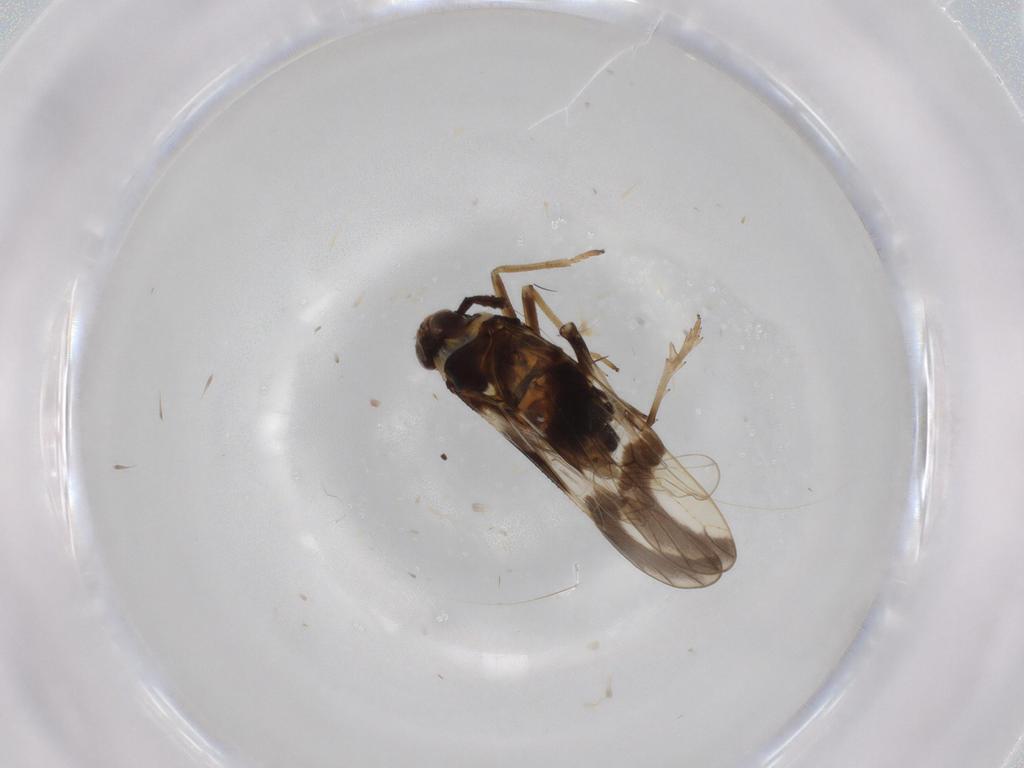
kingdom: Animalia
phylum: Arthropoda
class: Insecta
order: Hemiptera
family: Delphacidae
